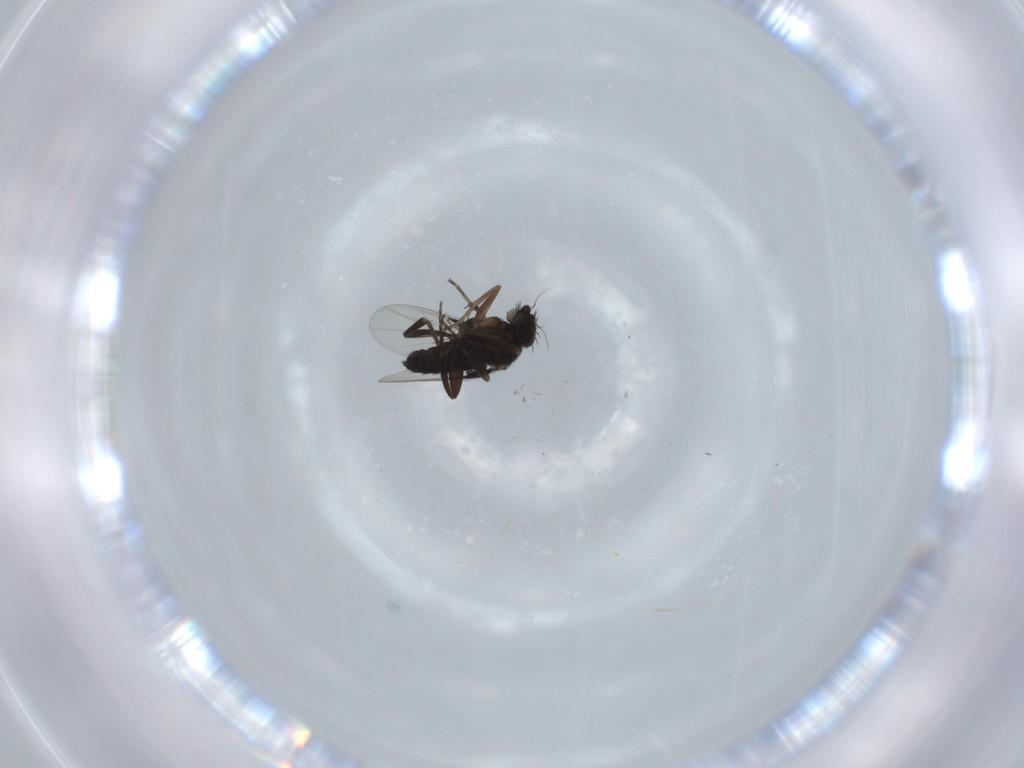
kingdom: Animalia
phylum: Arthropoda
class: Insecta
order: Diptera
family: Phoridae
